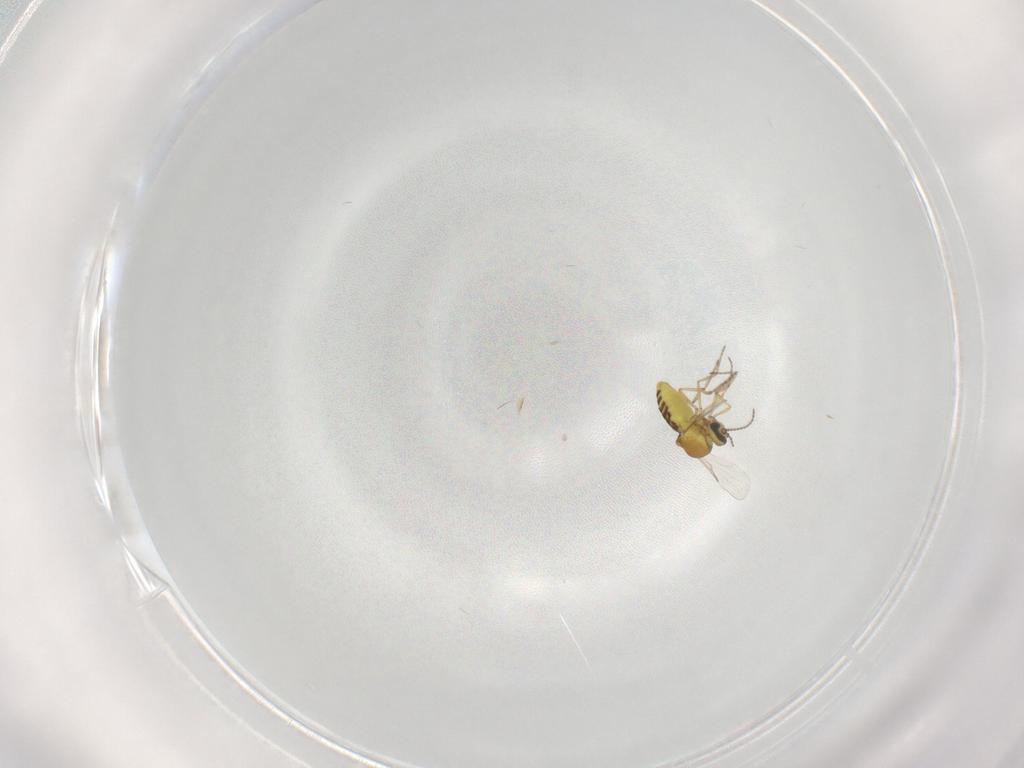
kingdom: Animalia
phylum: Arthropoda
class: Insecta
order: Diptera
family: Ceratopogonidae
